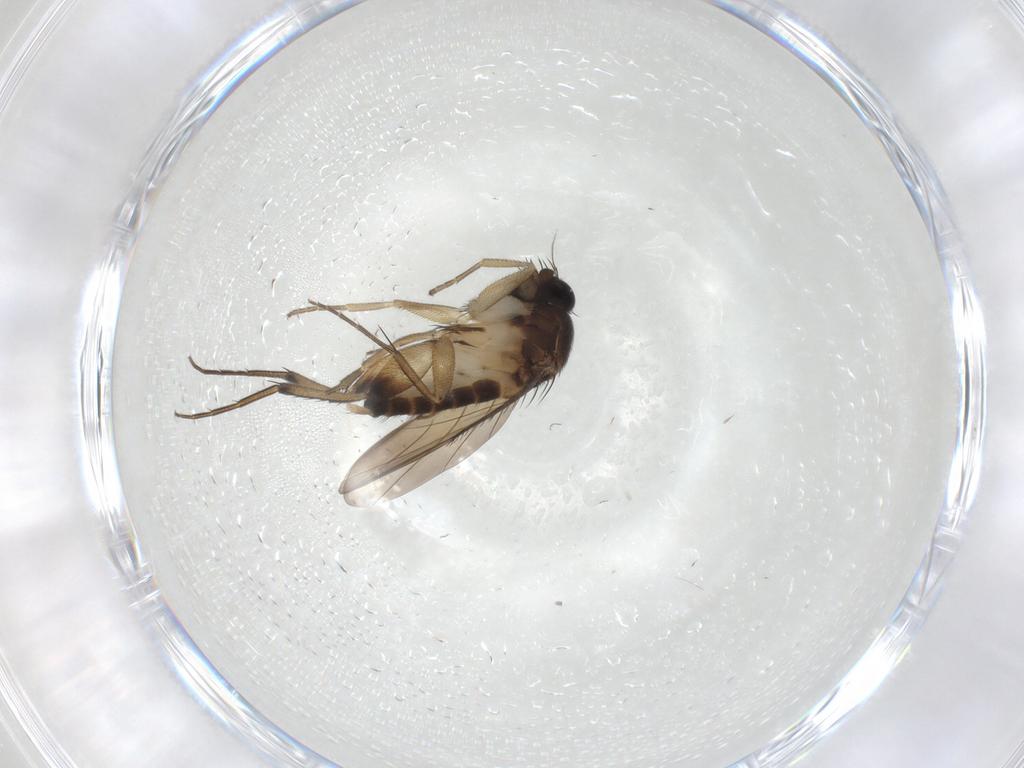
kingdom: Animalia
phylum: Arthropoda
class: Insecta
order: Diptera
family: Phoridae
